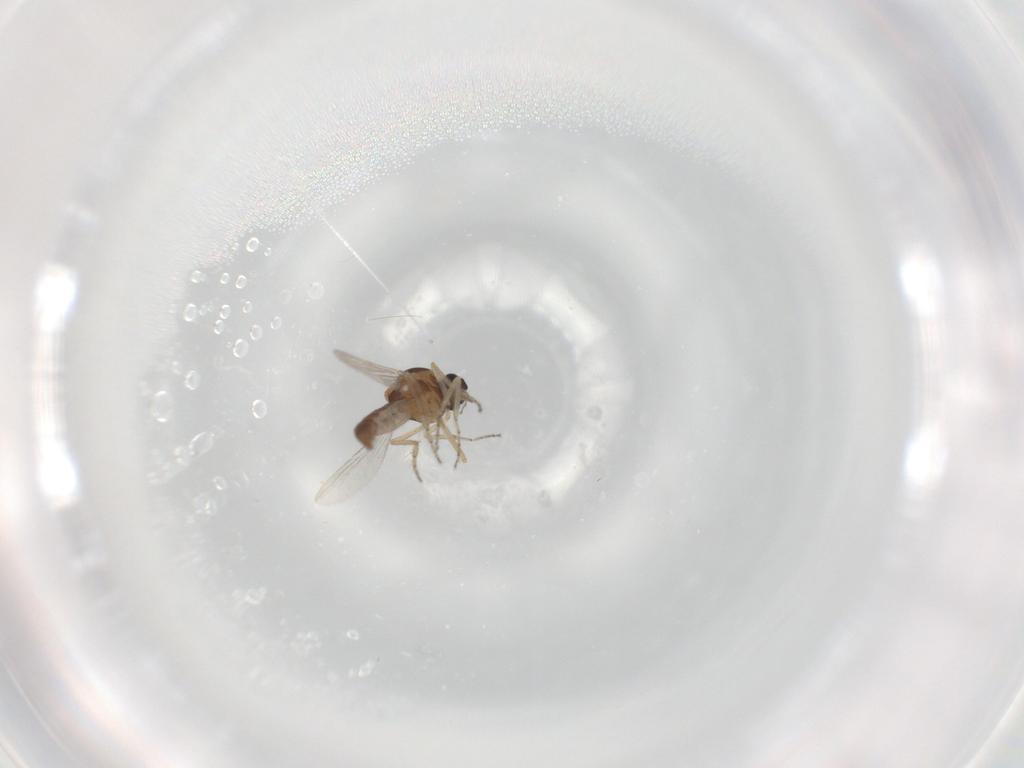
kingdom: Animalia
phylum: Arthropoda
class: Insecta
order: Diptera
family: Ceratopogonidae
